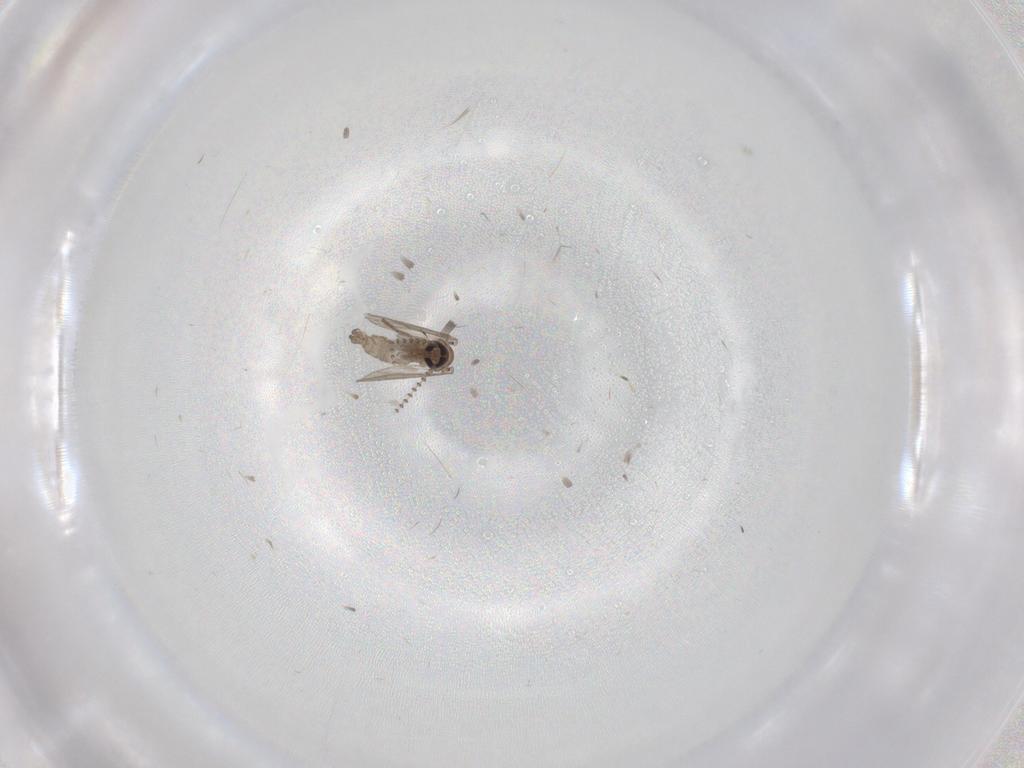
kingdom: Animalia
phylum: Arthropoda
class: Insecta
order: Diptera
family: Psychodidae
